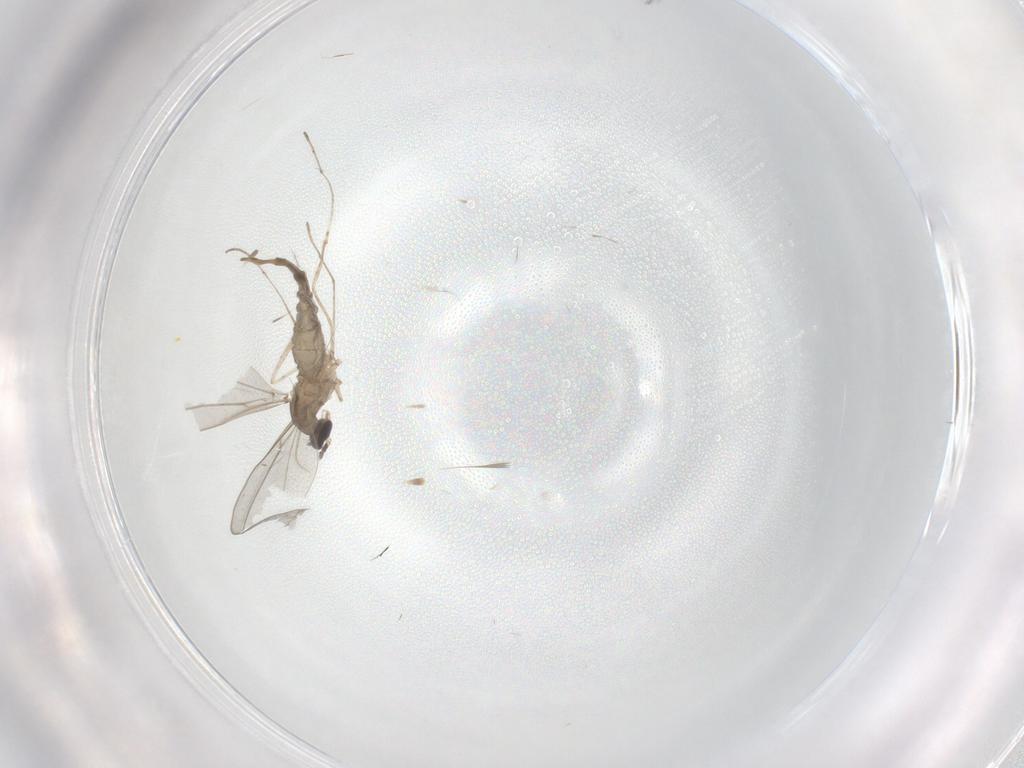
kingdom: Animalia
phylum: Arthropoda
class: Insecta
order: Diptera
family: Cecidomyiidae
